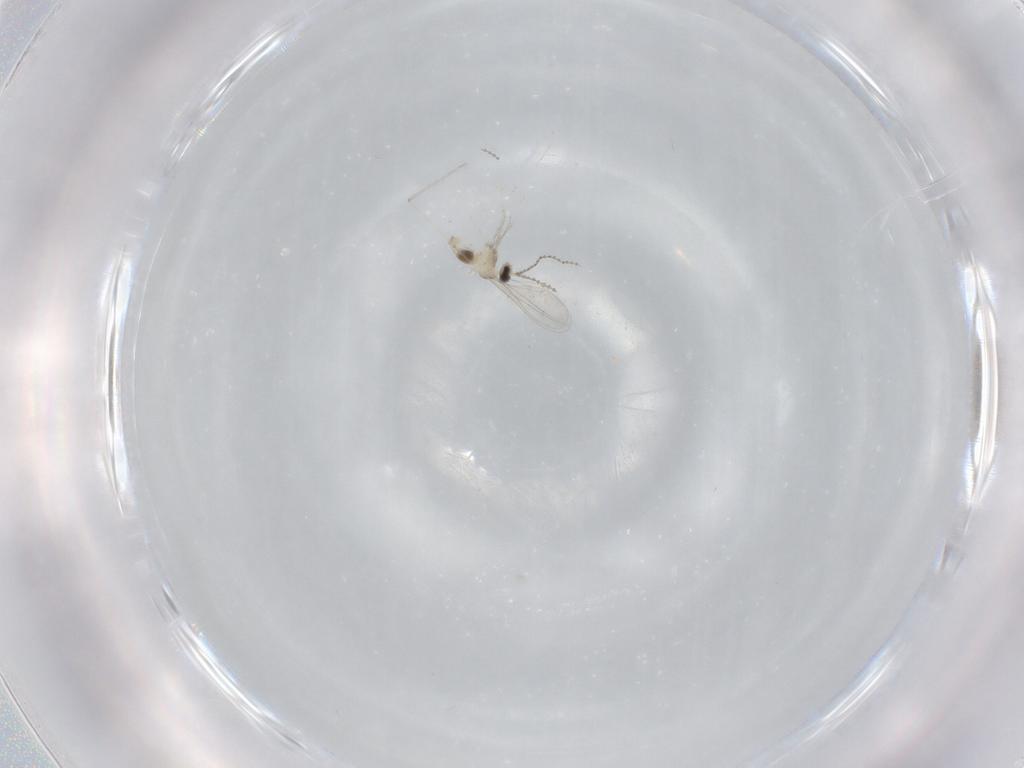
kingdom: Animalia
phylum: Arthropoda
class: Insecta
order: Diptera
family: Cecidomyiidae
